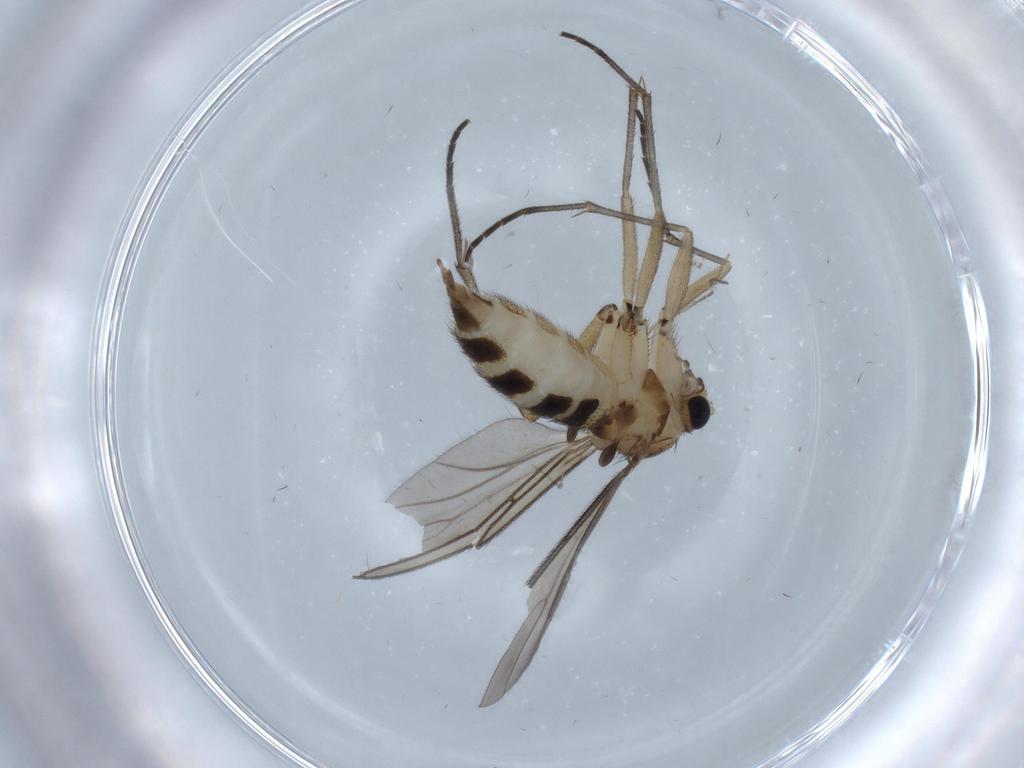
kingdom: Animalia
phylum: Arthropoda
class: Insecta
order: Diptera
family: Sciaridae
